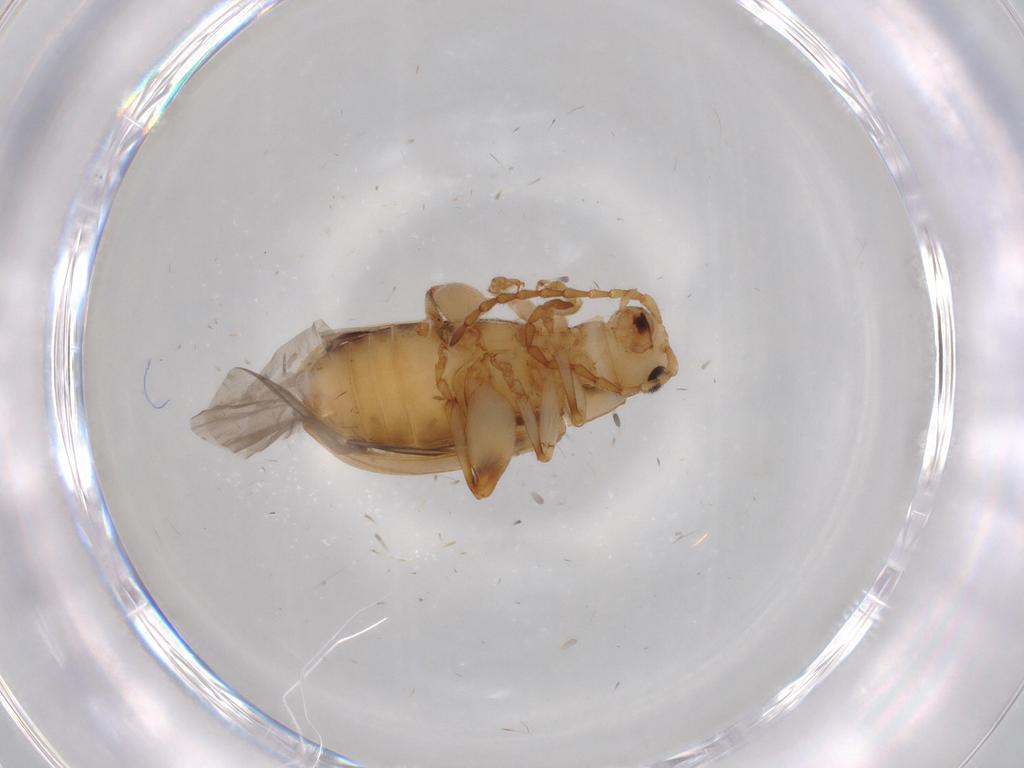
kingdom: Animalia
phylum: Arthropoda
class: Insecta
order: Coleoptera
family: Chrysomelidae
